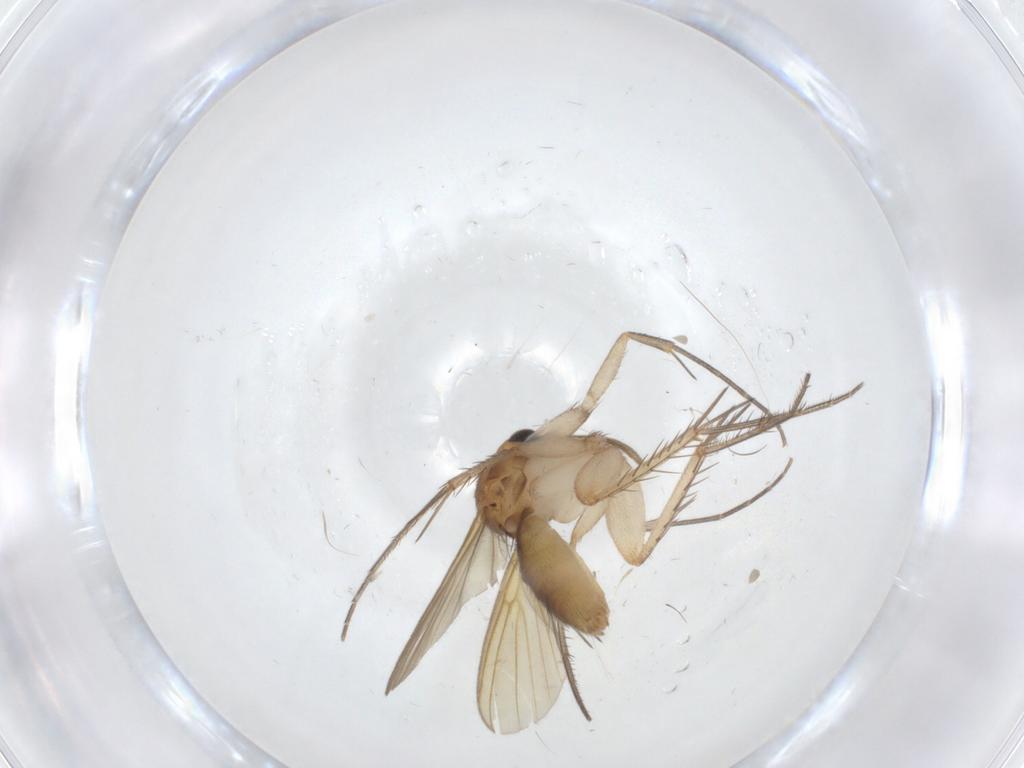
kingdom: Animalia
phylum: Arthropoda
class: Insecta
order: Diptera
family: Mycetophilidae
